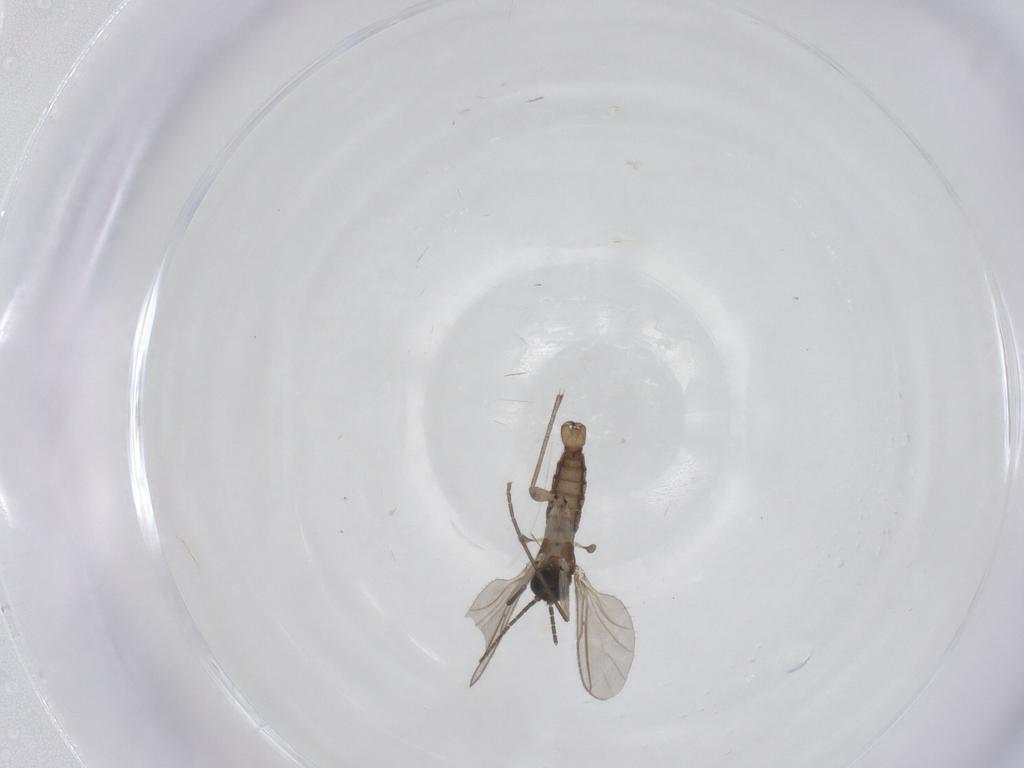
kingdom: Animalia
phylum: Arthropoda
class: Insecta
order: Diptera
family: Sciaridae
